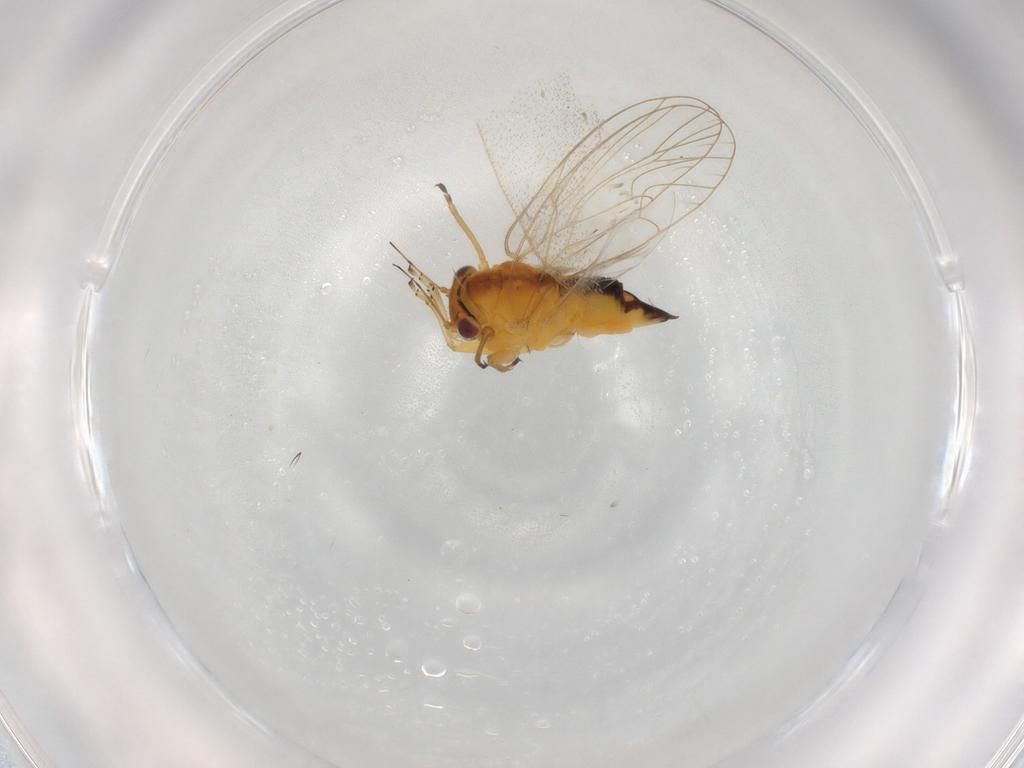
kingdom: Animalia
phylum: Arthropoda
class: Insecta
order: Hemiptera
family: Psyllidae
